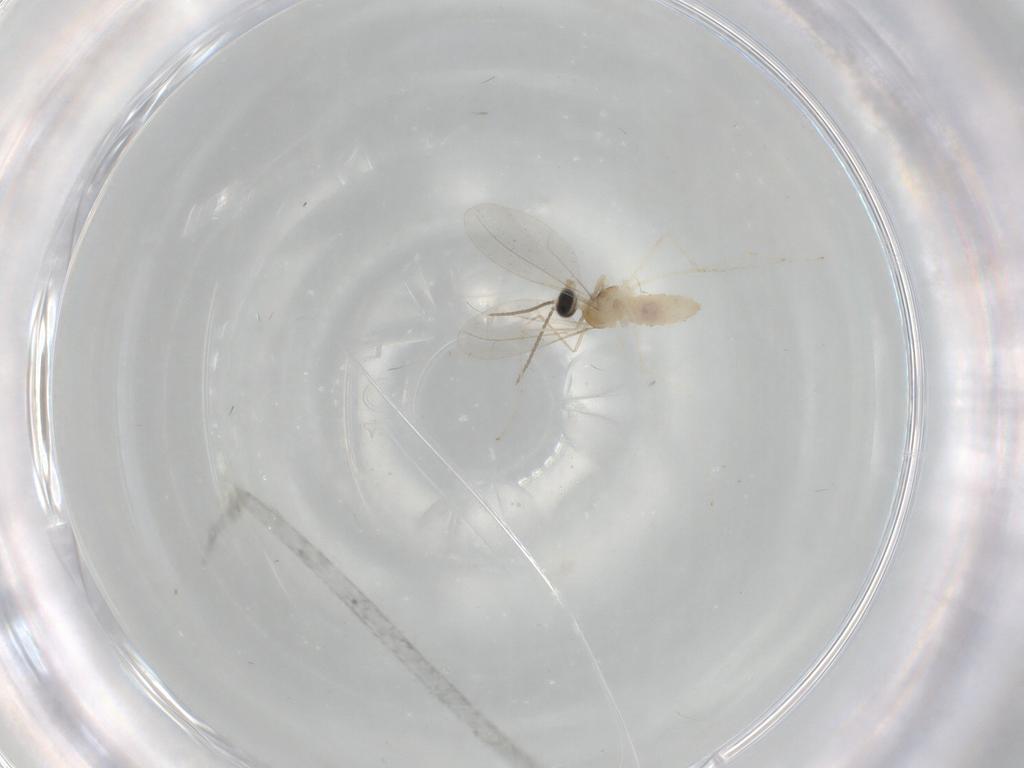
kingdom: Animalia
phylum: Arthropoda
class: Insecta
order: Diptera
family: Cecidomyiidae
